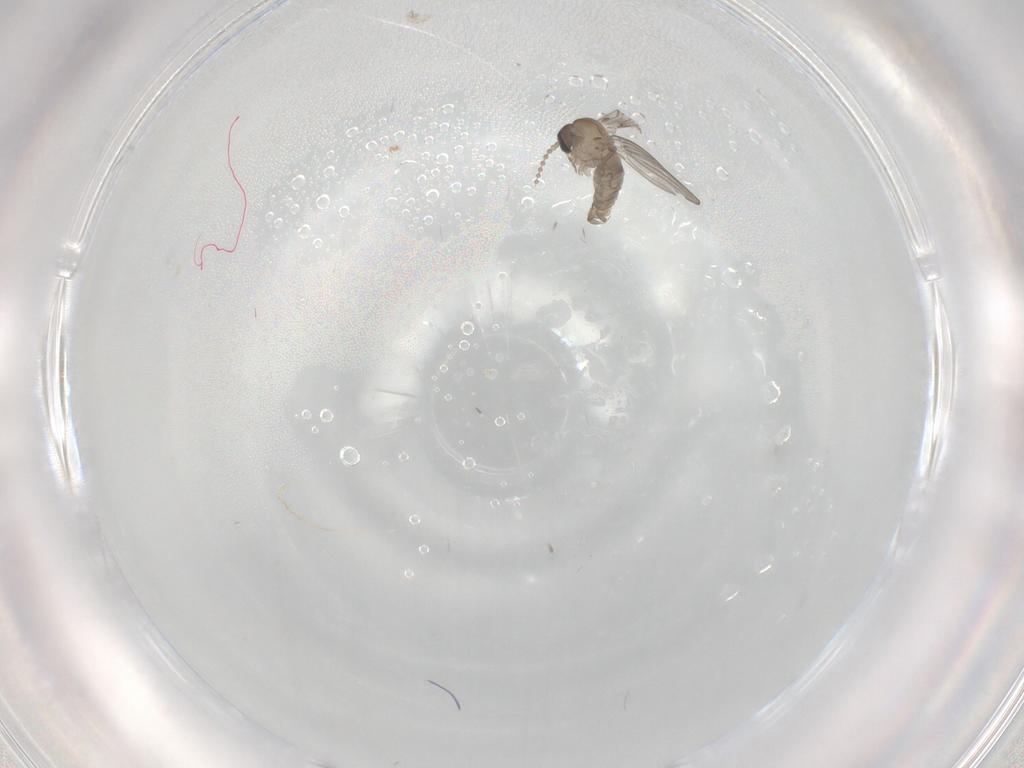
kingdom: Animalia
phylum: Arthropoda
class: Insecta
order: Diptera
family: Psychodidae
